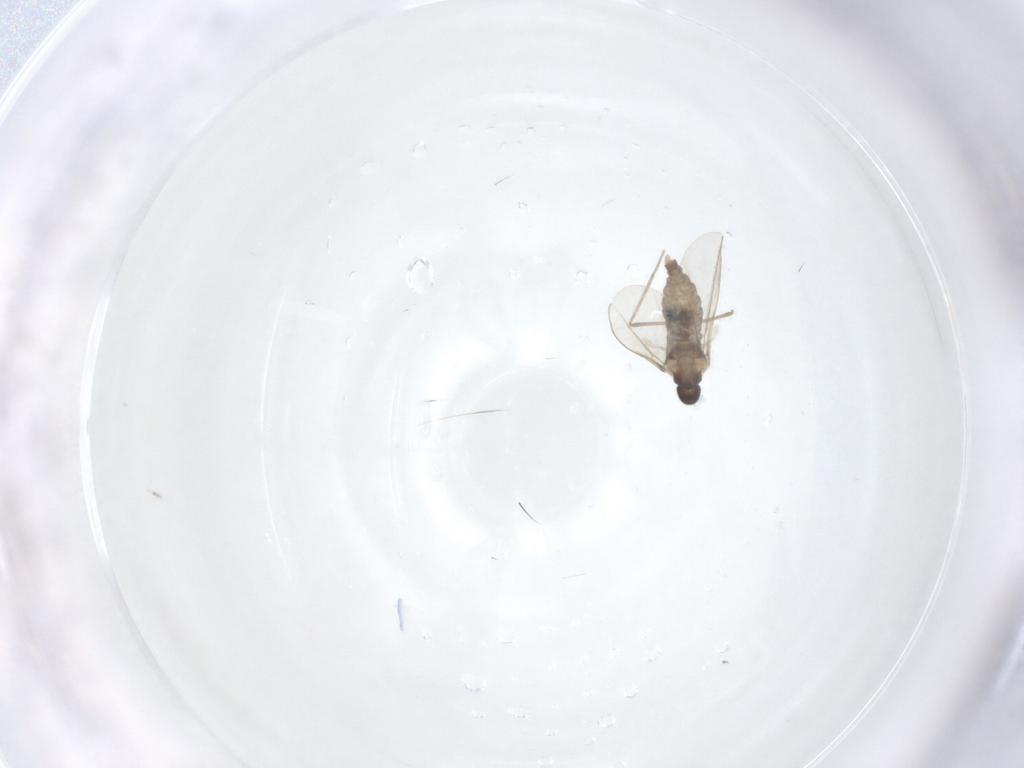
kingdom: Animalia
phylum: Arthropoda
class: Insecta
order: Diptera
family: Cecidomyiidae
